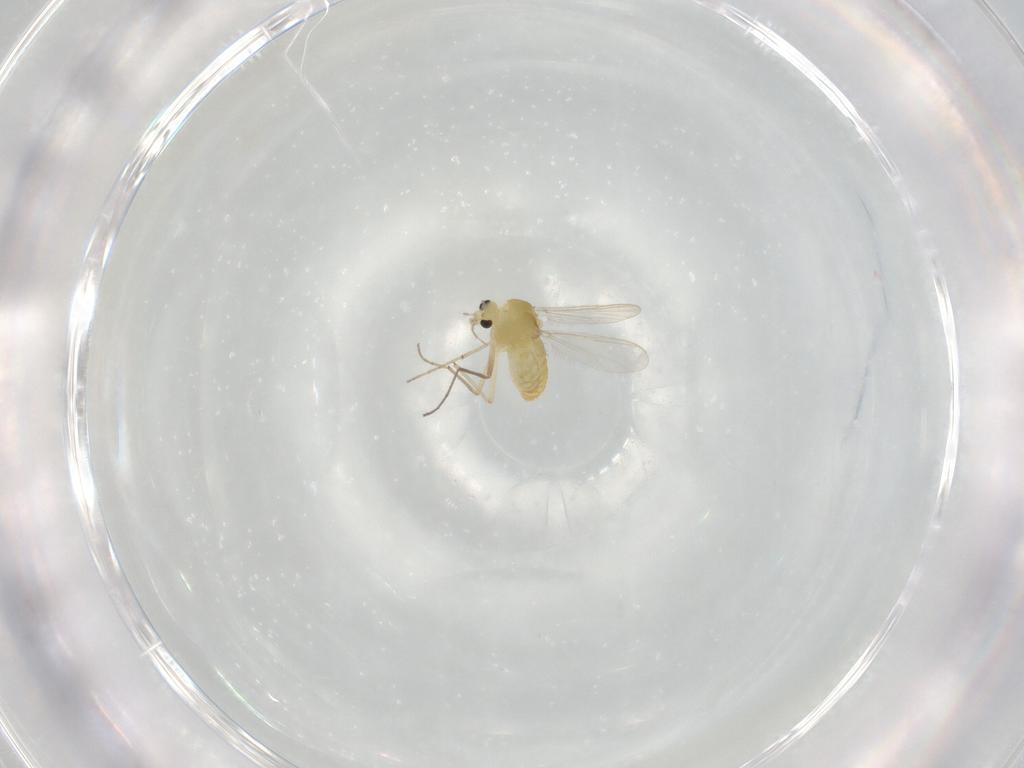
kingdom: Animalia
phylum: Arthropoda
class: Insecta
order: Diptera
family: Chironomidae
